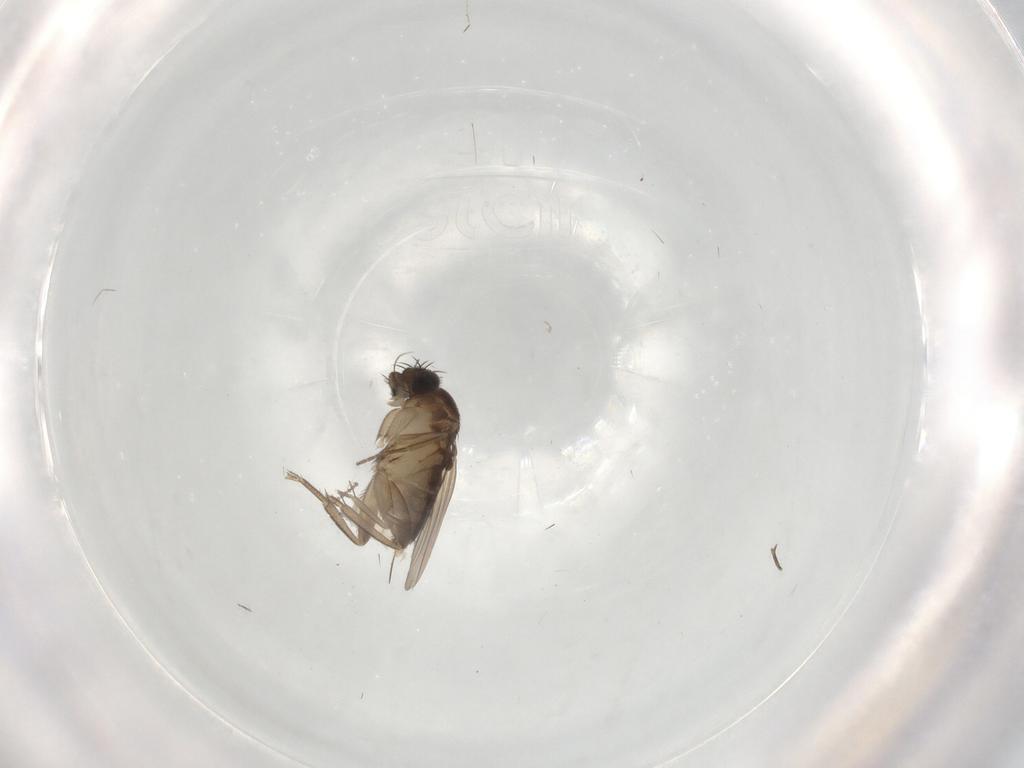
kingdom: Animalia
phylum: Arthropoda
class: Insecta
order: Diptera
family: Phoridae
